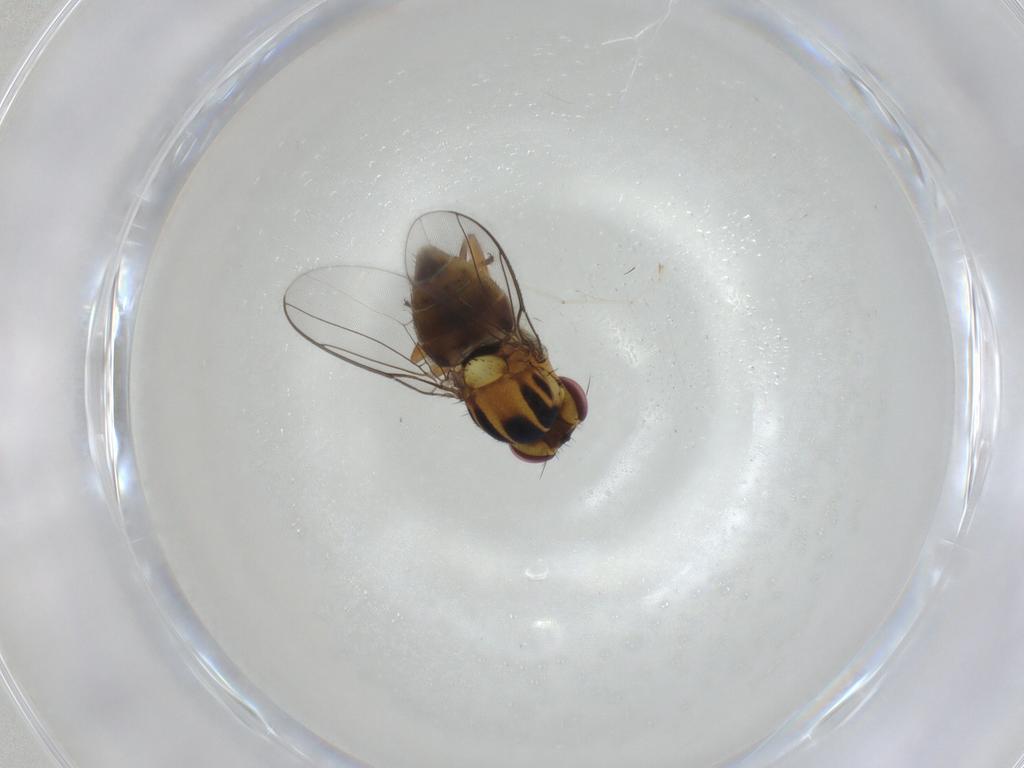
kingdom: Animalia
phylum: Arthropoda
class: Insecta
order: Diptera
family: Chloropidae
